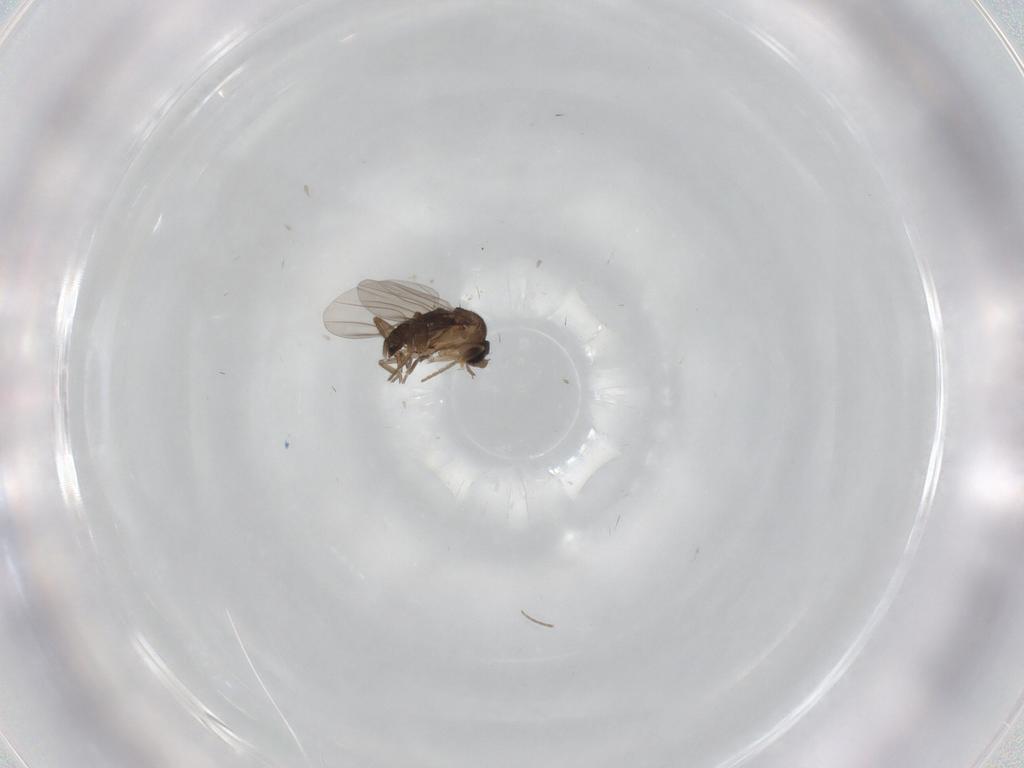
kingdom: Animalia
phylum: Arthropoda
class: Insecta
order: Diptera
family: Phoridae
